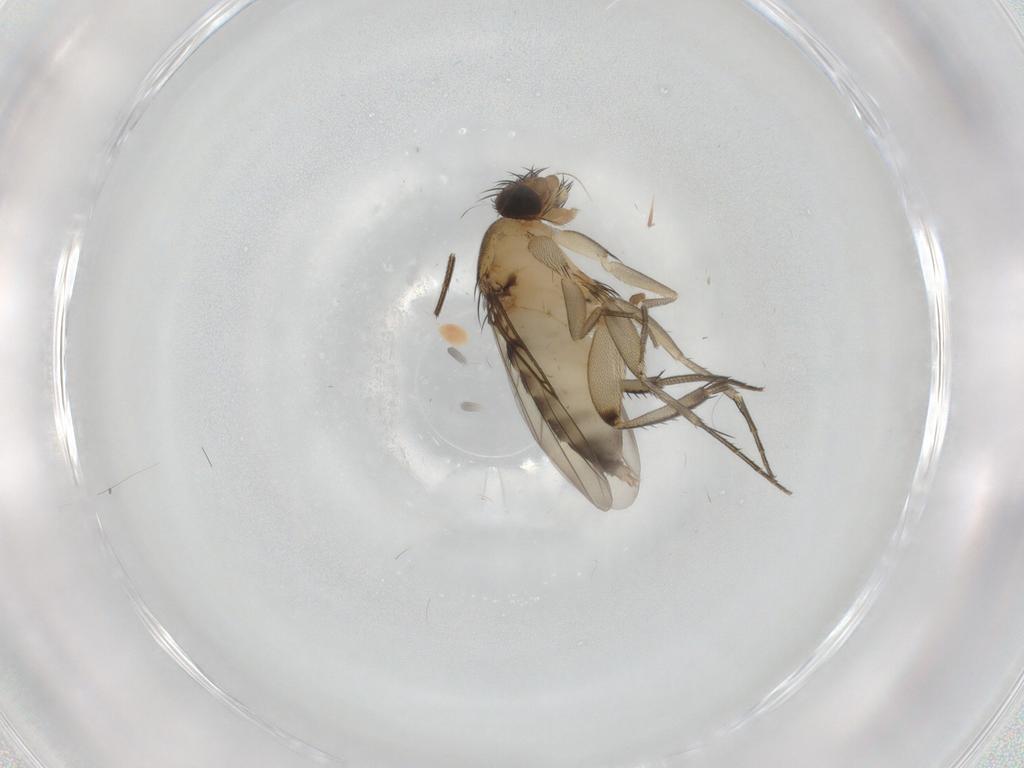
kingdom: Animalia
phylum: Arthropoda
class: Insecta
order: Diptera
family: Phoridae
